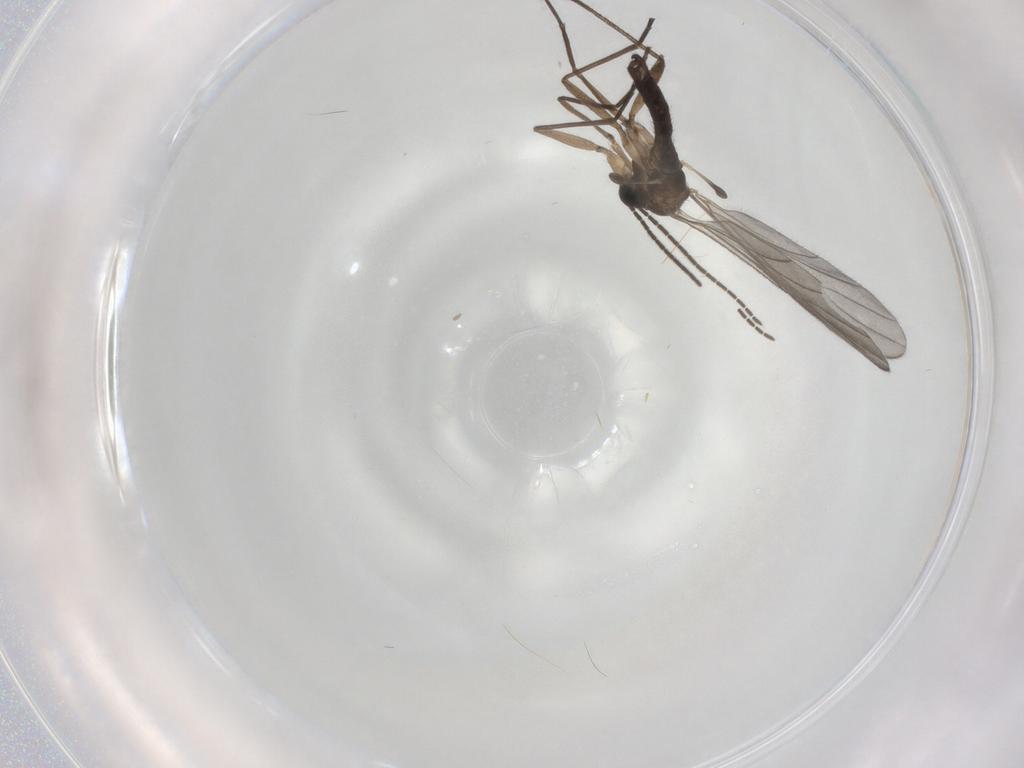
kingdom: Animalia
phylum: Arthropoda
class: Insecta
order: Diptera
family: Sciaridae
